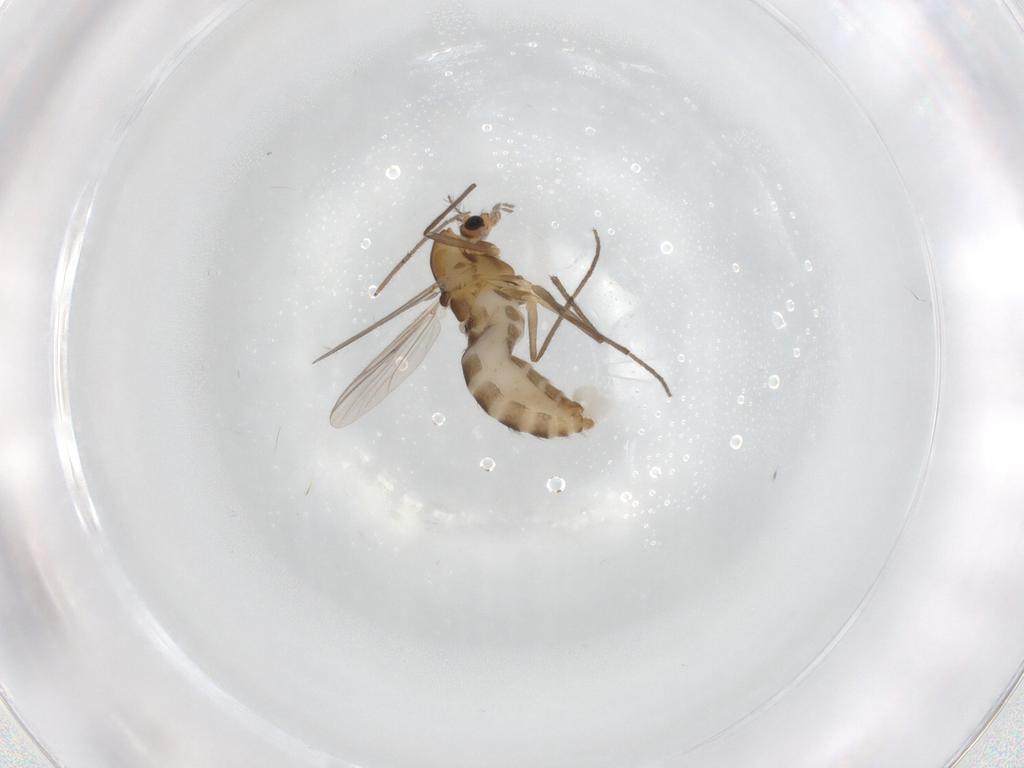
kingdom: Animalia
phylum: Arthropoda
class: Insecta
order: Diptera
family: Chironomidae
